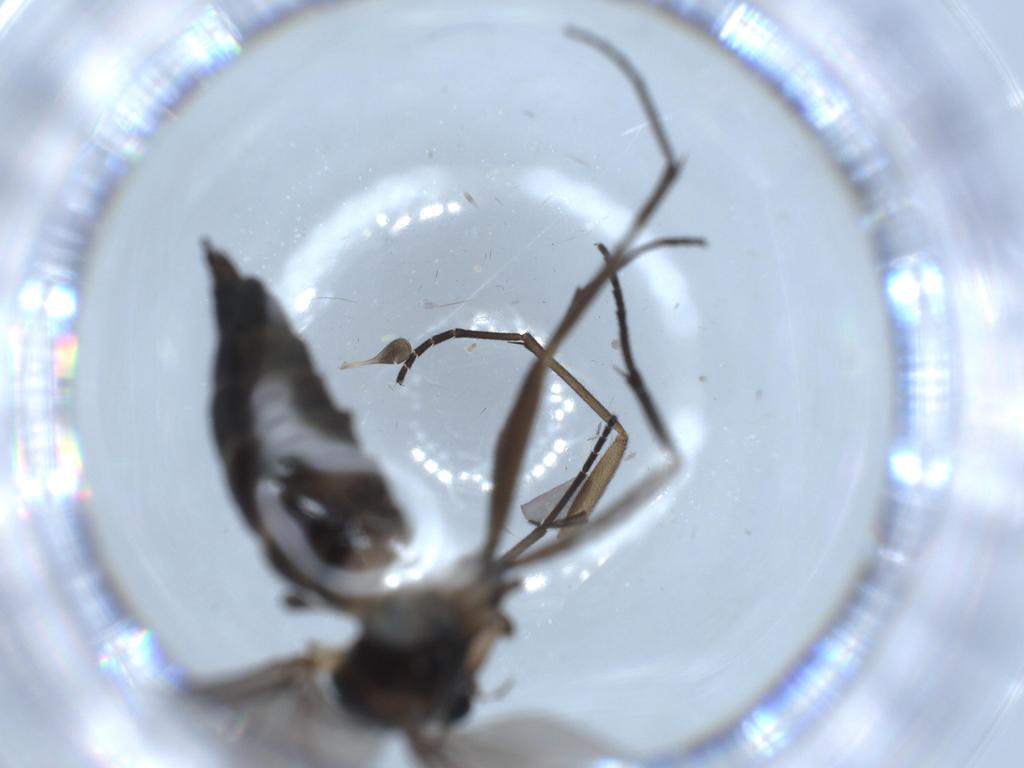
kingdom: Animalia
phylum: Arthropoda
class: Insecta
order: Diptera
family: Sciaridae
